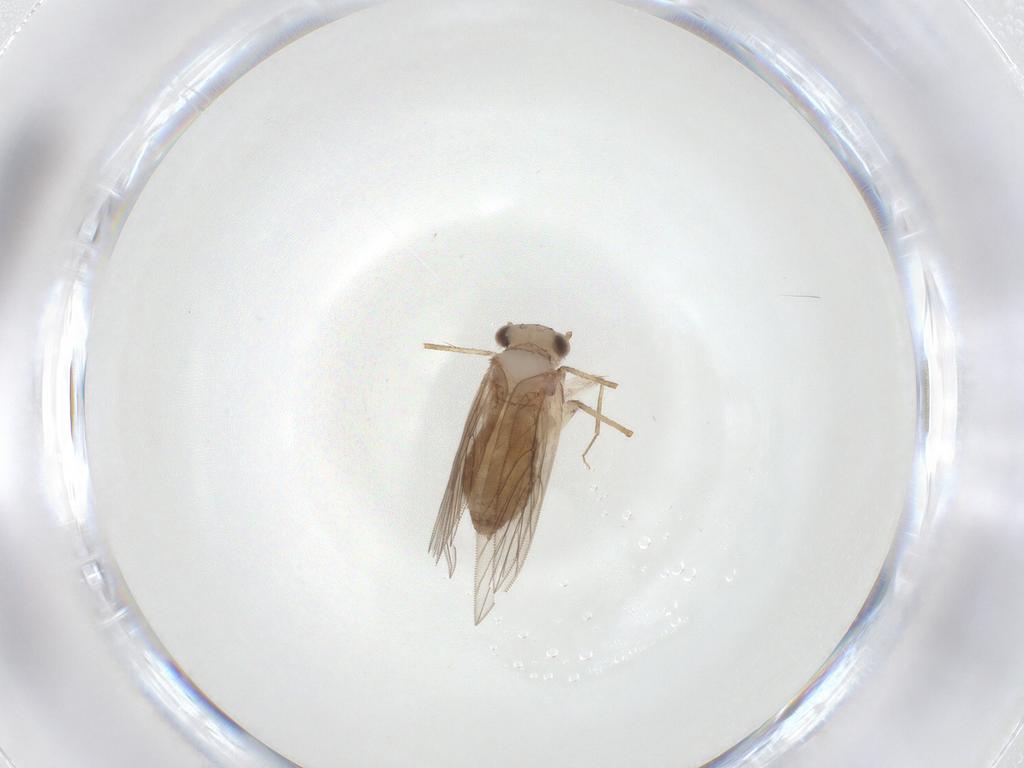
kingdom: Animalia
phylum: Arthropoda
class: Insecta
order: Psocodea
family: Lepidopsocidae
